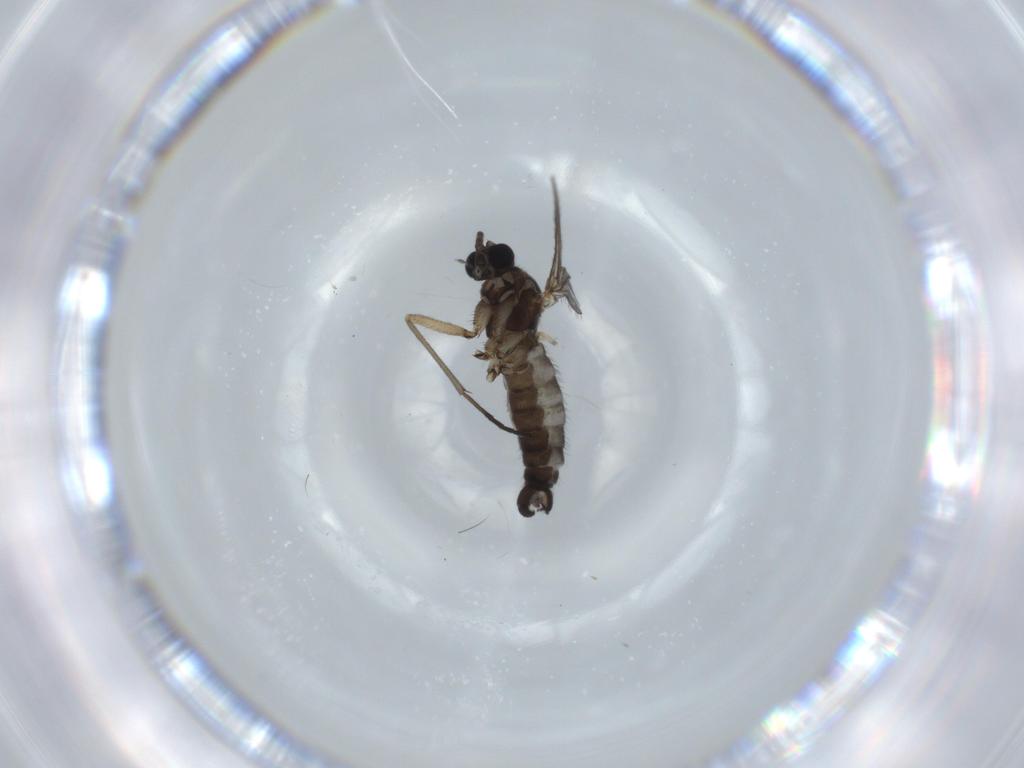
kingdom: Animalia
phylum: Arthropoda
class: Insecta
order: Diptera
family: Sciaridae
